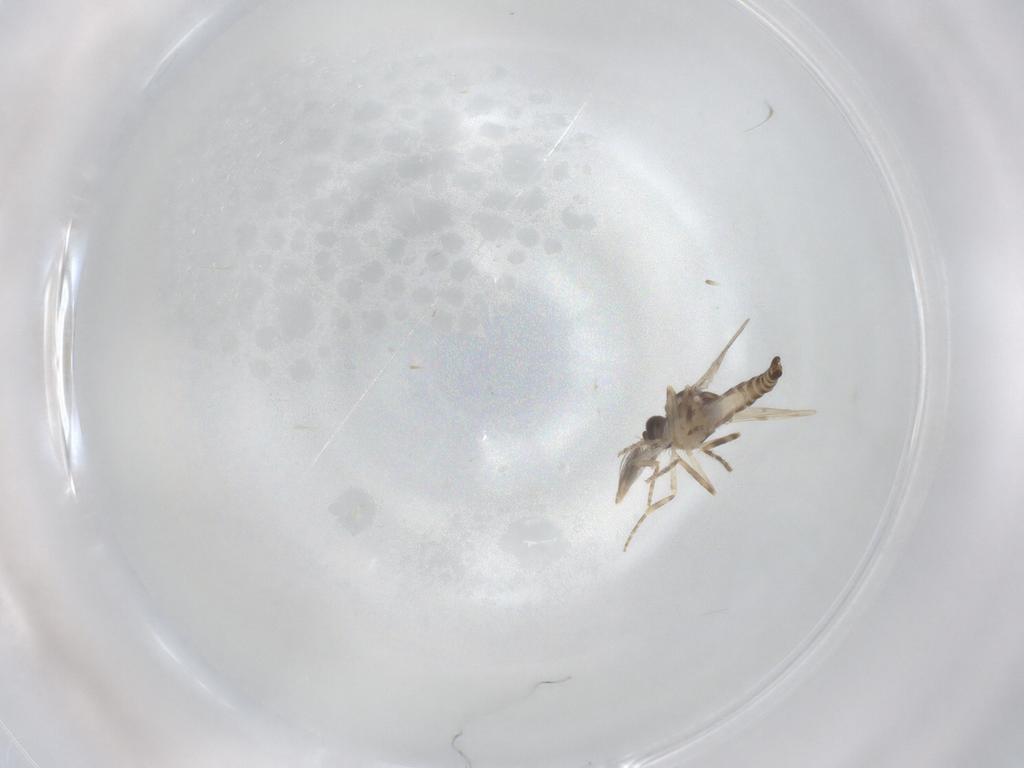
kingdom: Animalia
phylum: Arthropoda
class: Insecta
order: Diptera
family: Ceratopogonidae
